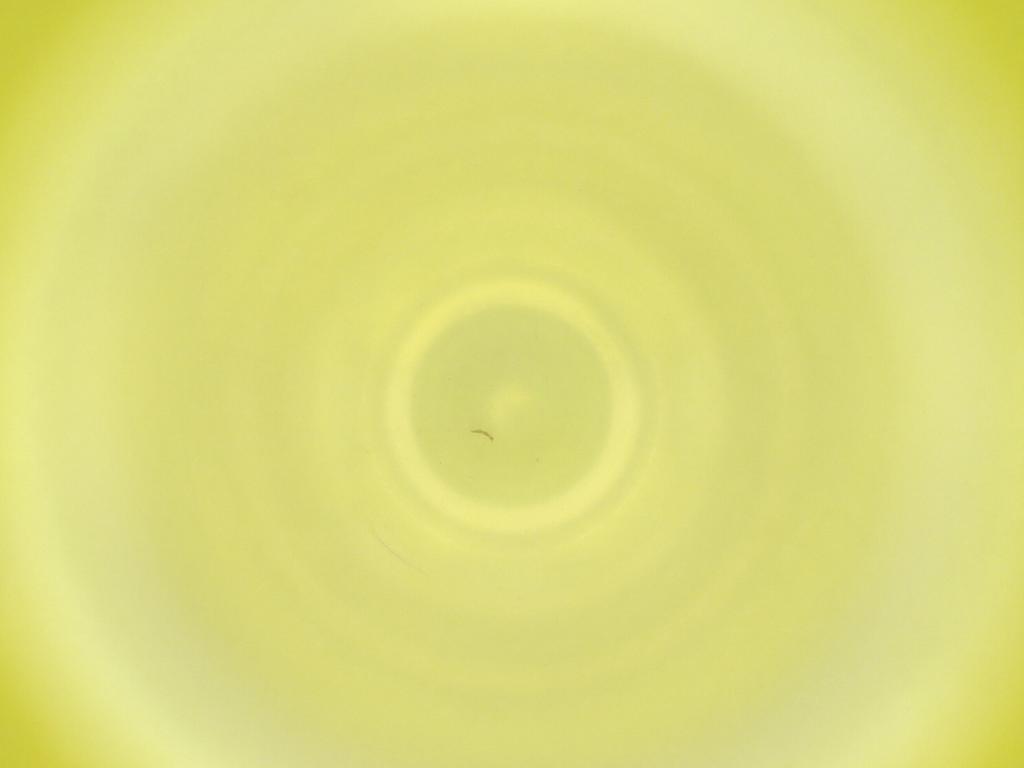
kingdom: Animalia
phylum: Arthropoda
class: Insecta
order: Diptera
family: Cecidomyiidae
